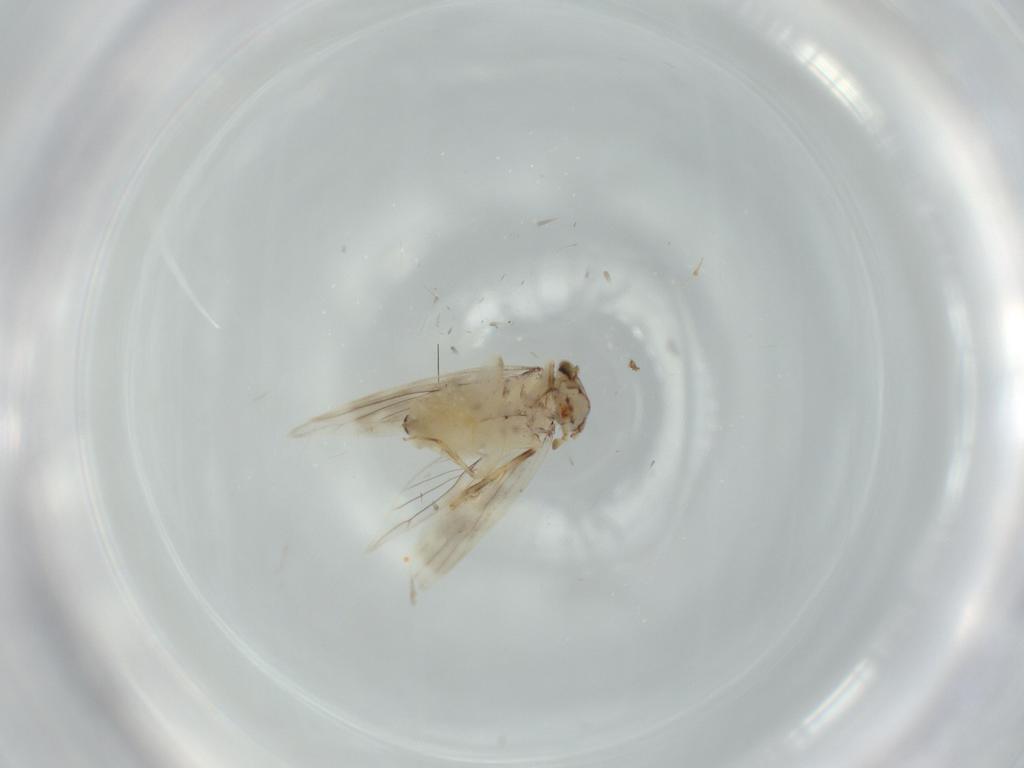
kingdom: Animalia
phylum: Arthropoda
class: Insecta
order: Psocodea
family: Lepidopsocidae
